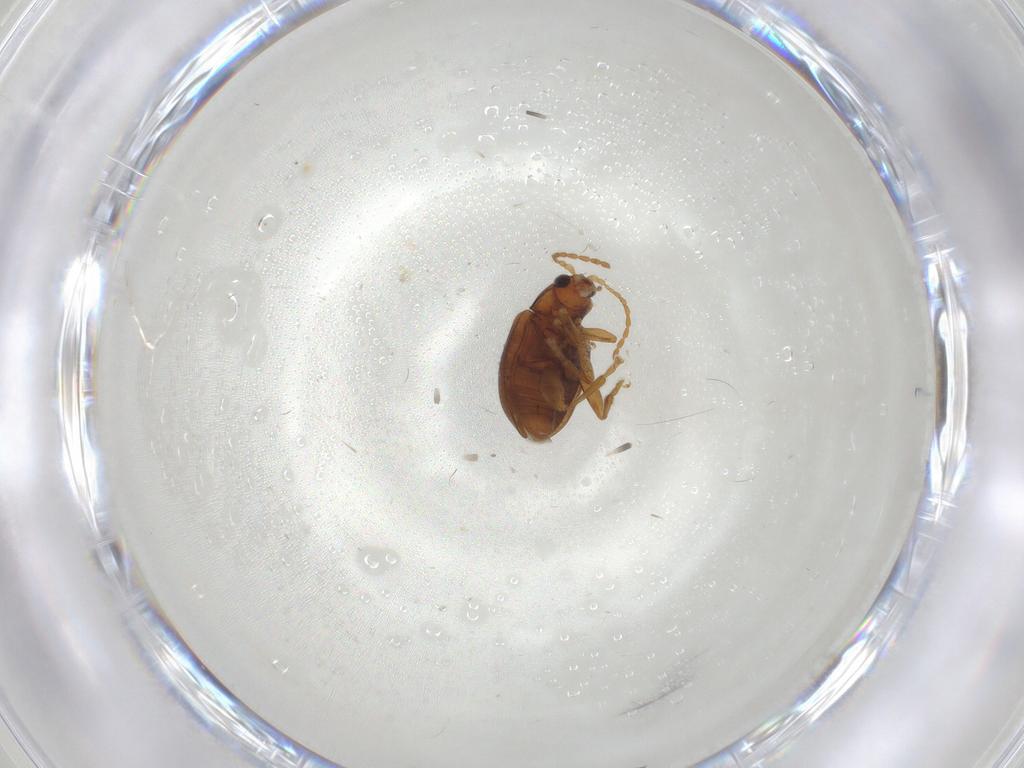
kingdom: Animalia
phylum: Arthropoda
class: Insecta
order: Coleoptera
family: Chrysomelidae
